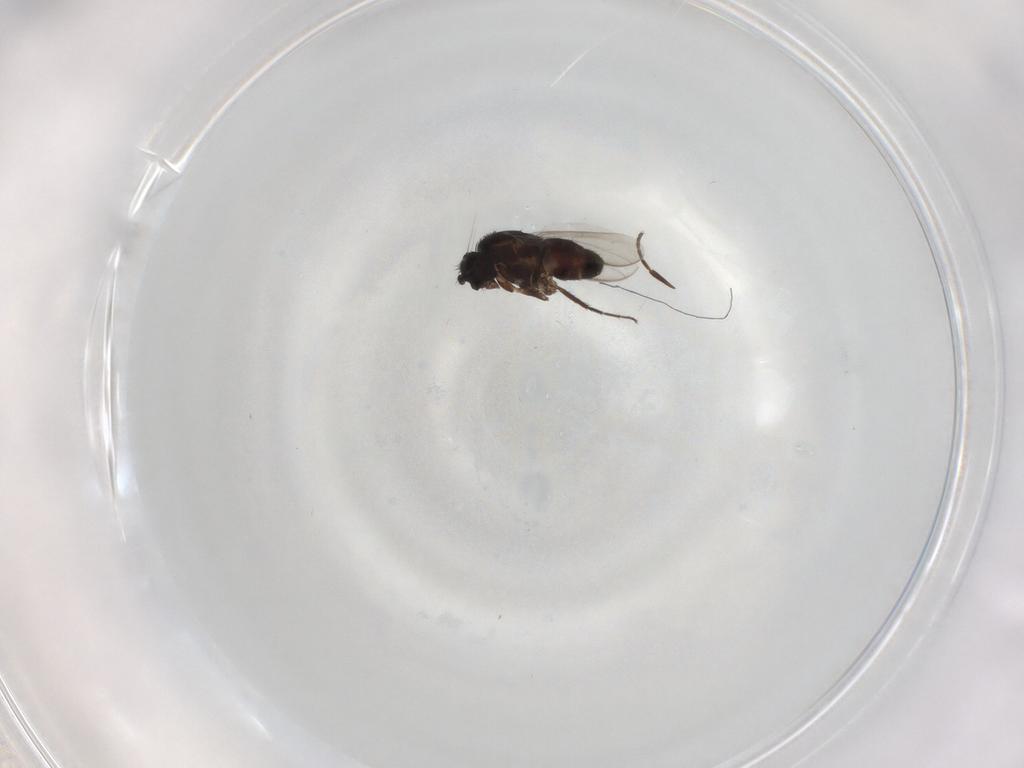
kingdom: Animalia
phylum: Arthropoda
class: Insecta
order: Diptera
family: Sphaeroceridae
